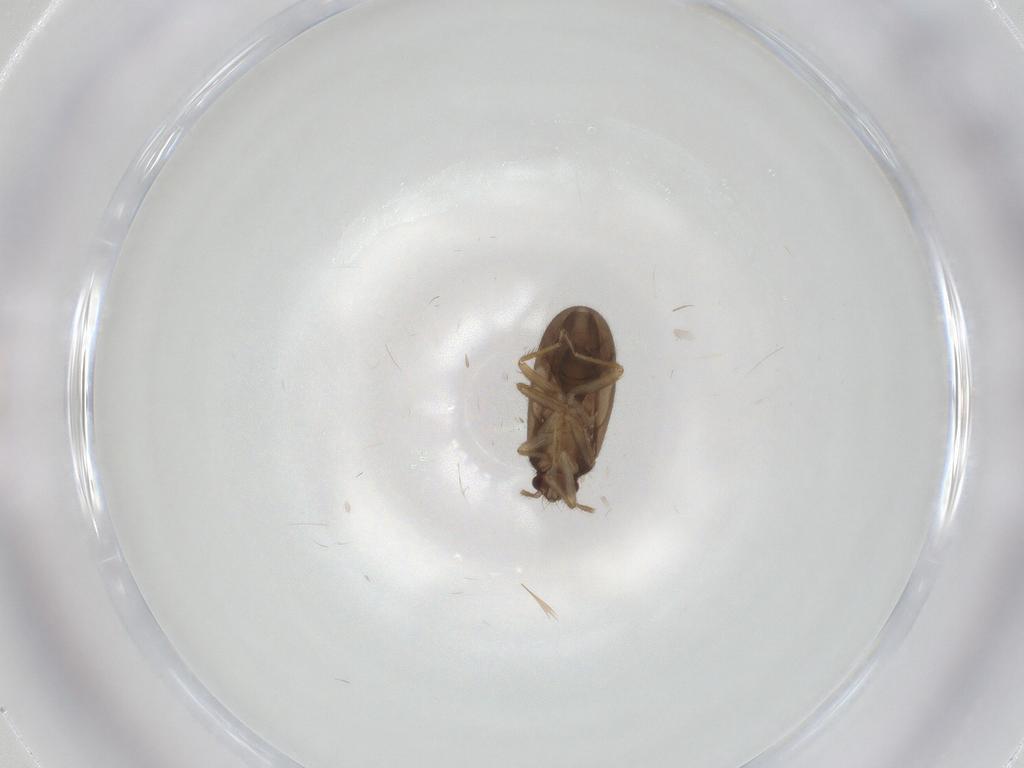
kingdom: Animalia
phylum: Arthropoda
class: Insecta
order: Hemiptera
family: Ceratocombidae
